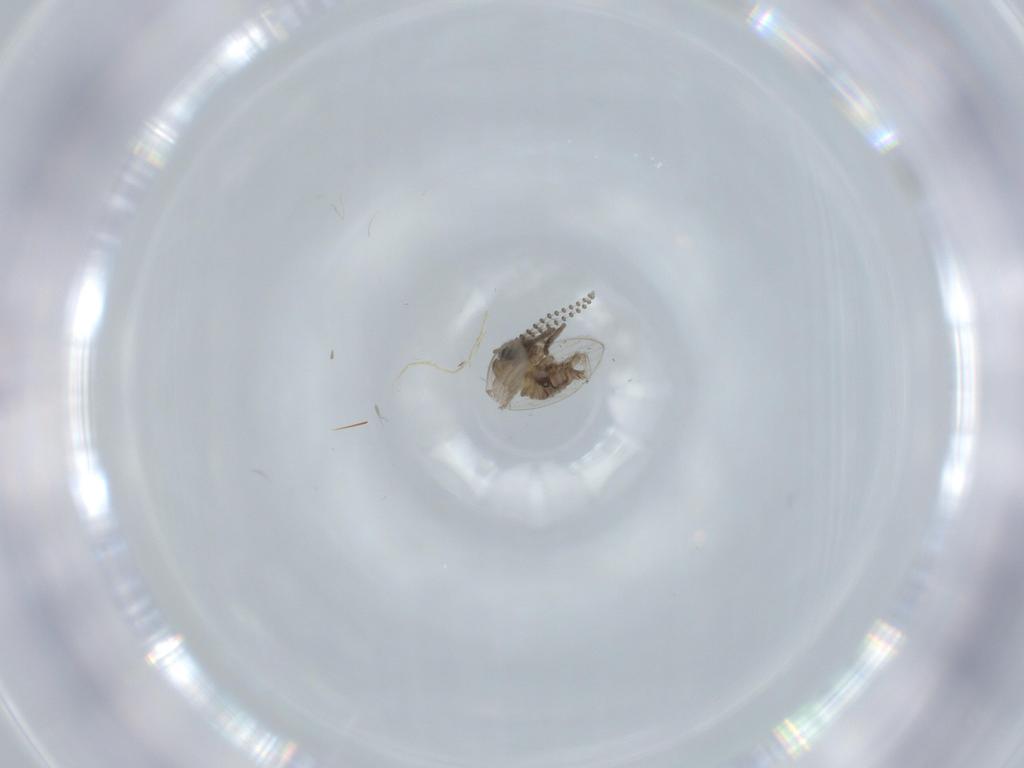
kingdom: Animalia
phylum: Arthropoda
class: Insecta
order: Diptera
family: Psychodidae
